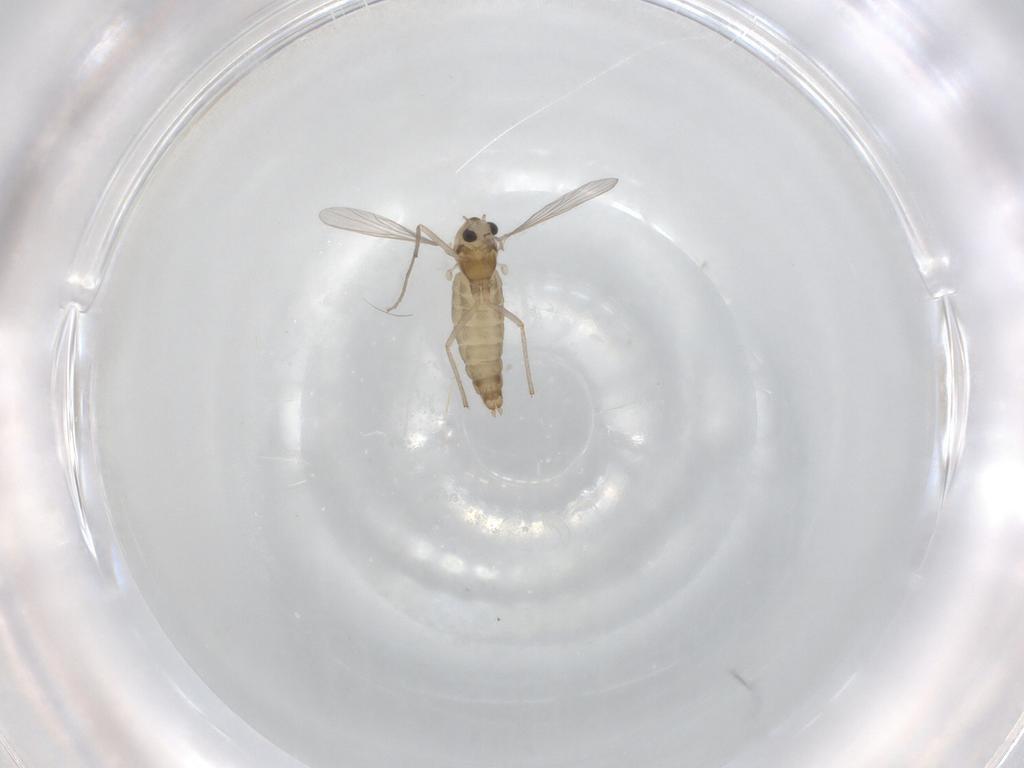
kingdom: Animalia
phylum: Arthropoda
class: Insecta
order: Diptera
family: Chironomidae
